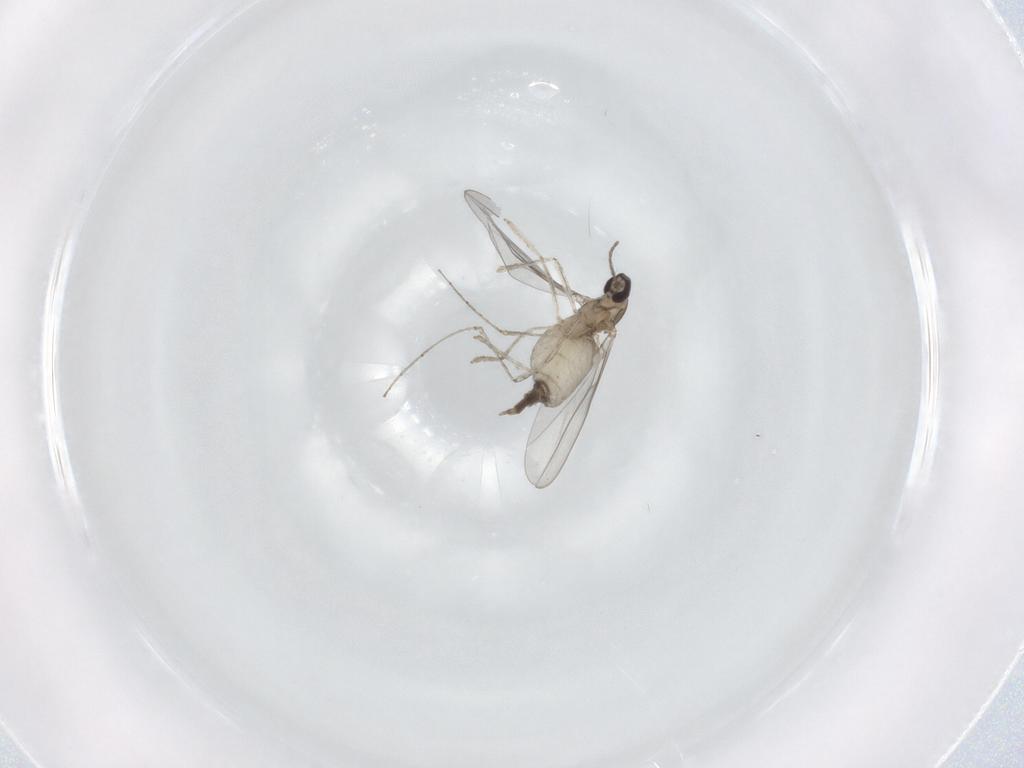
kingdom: Animalia
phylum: Arthropoda
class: Insecta
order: Diptera
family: Cecidomyiidae
